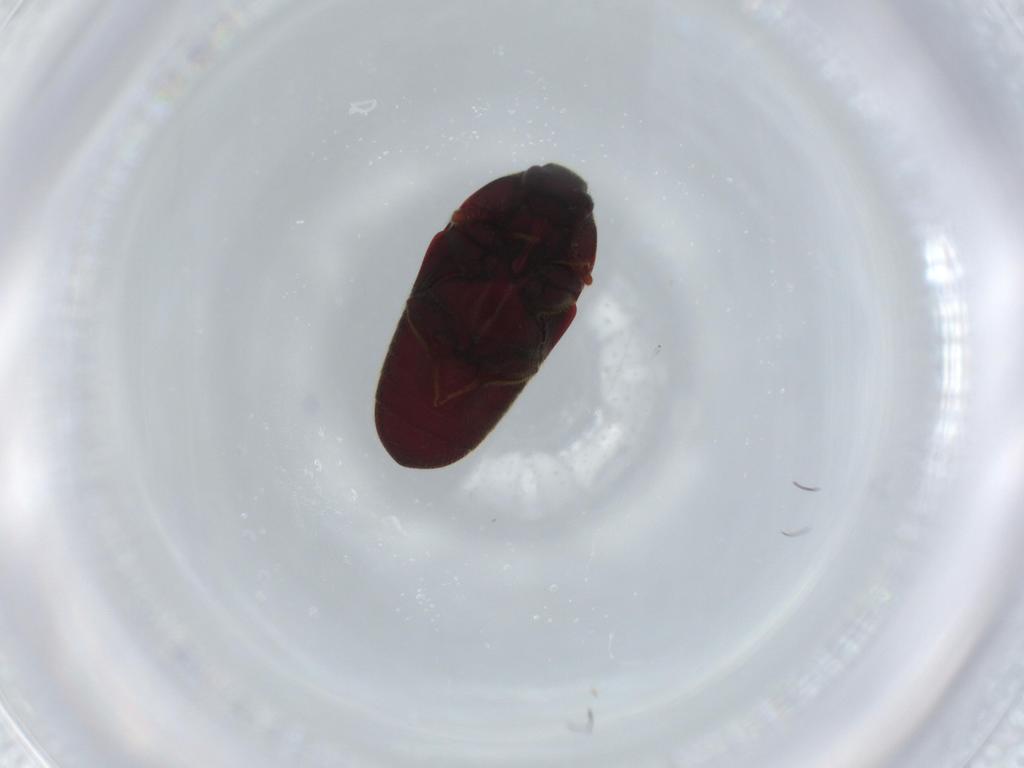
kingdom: Animalia
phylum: Arthropoda
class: Insecta
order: Coleoptera
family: Throscidae
